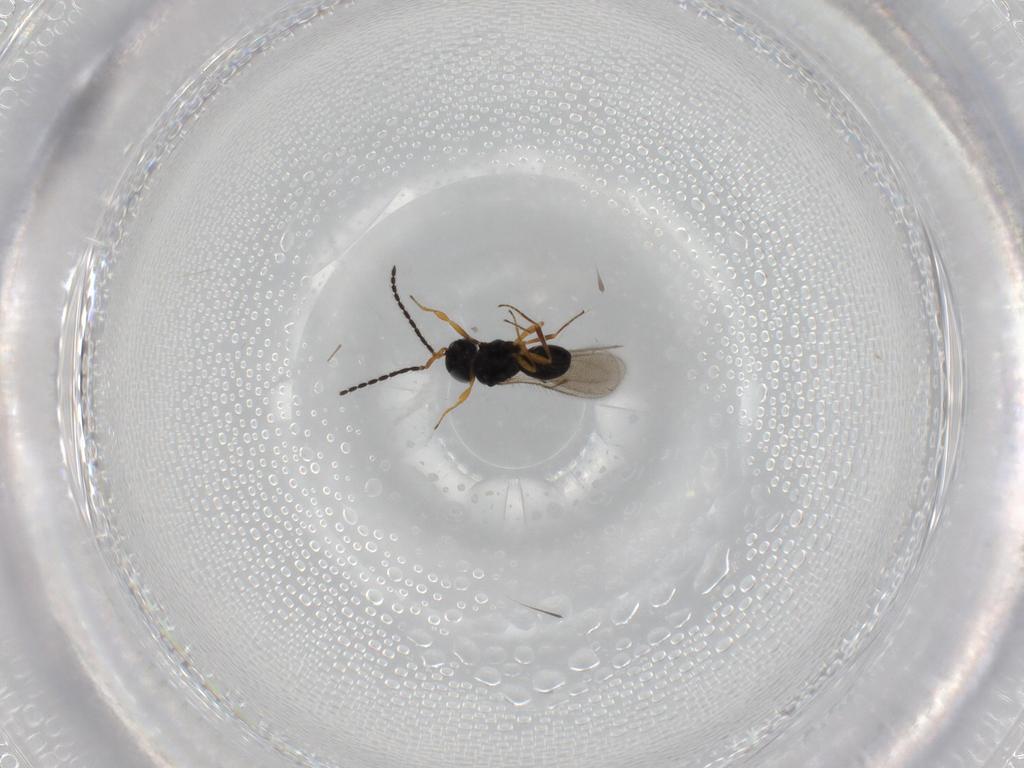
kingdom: Animalia
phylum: Arthropoda
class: Insecta
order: Hymenoptera
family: Scelionidae
